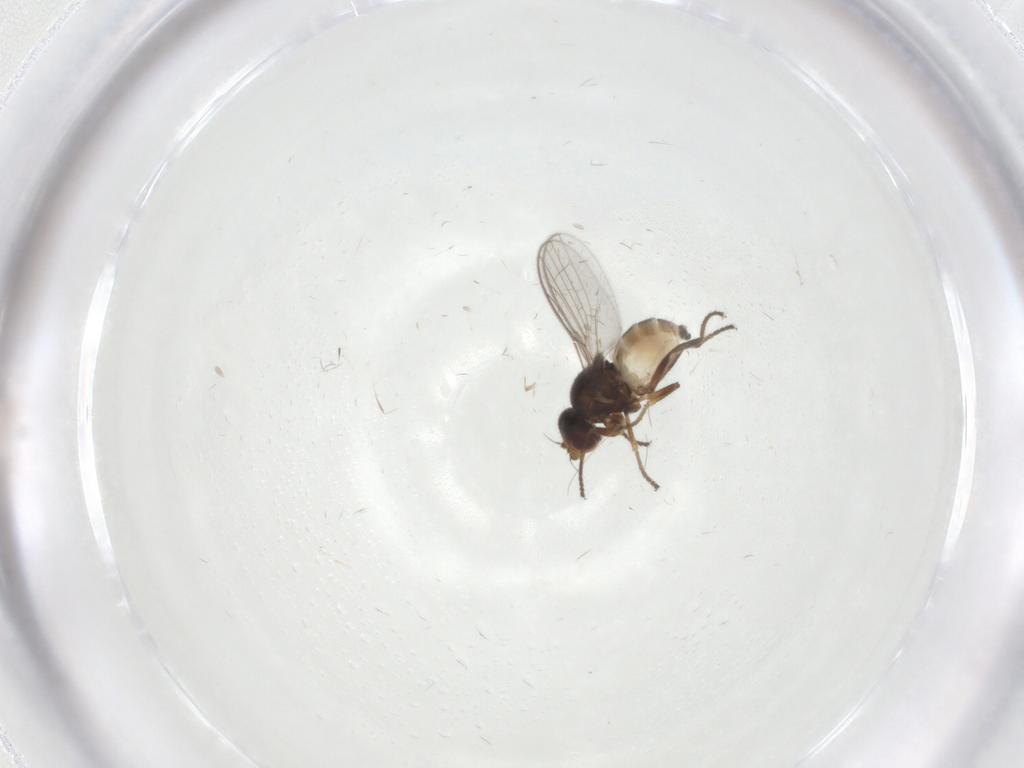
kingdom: Animalia
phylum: Arthropoda
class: Insecta
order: Diptera
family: Chloropidae
